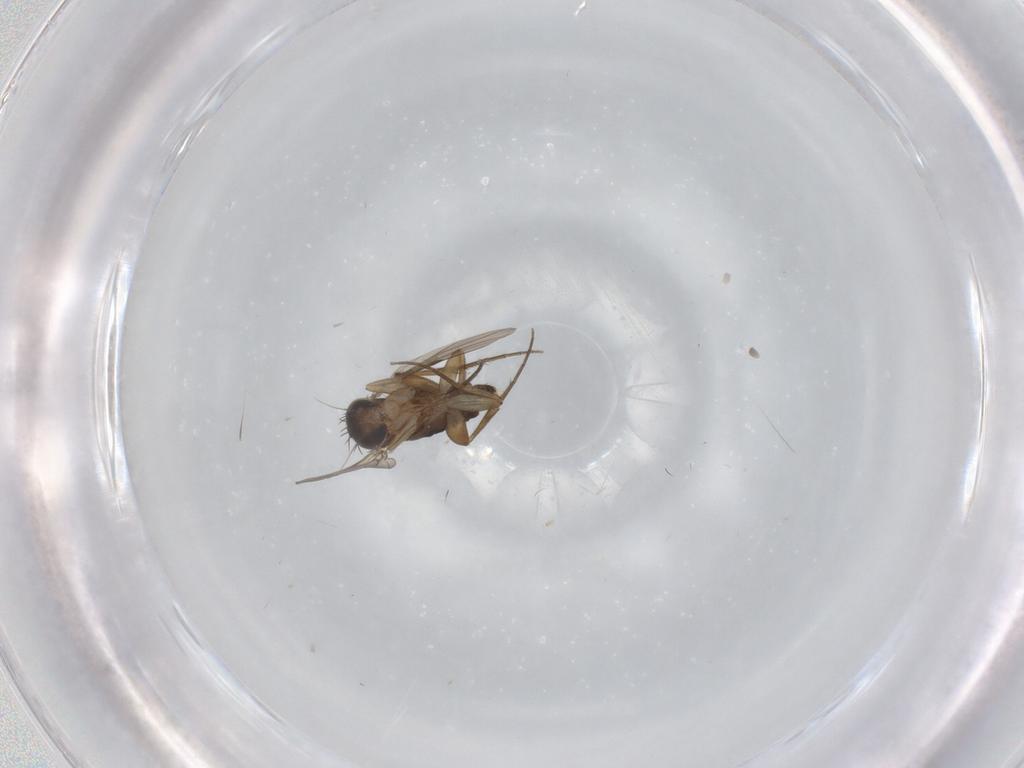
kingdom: Animalia
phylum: Arthropoda
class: Insecta
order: Diptera
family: Phoridae
